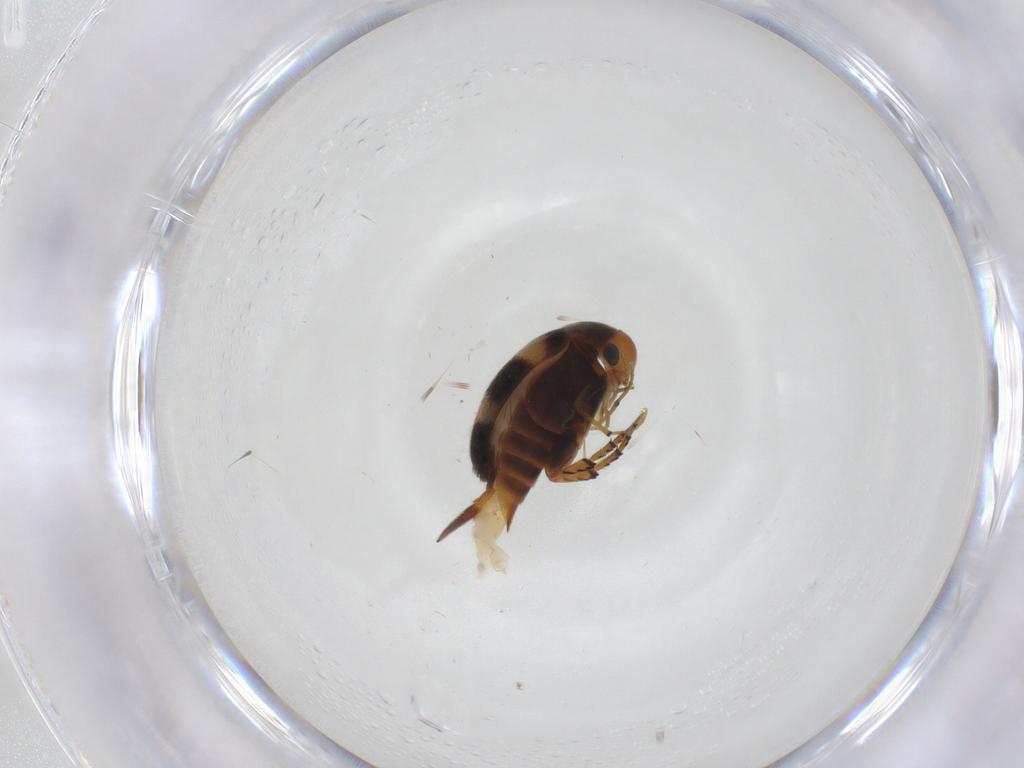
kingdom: Animalia
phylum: Arthropoda
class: Insecta
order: Coleoptera
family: Mordellidae
